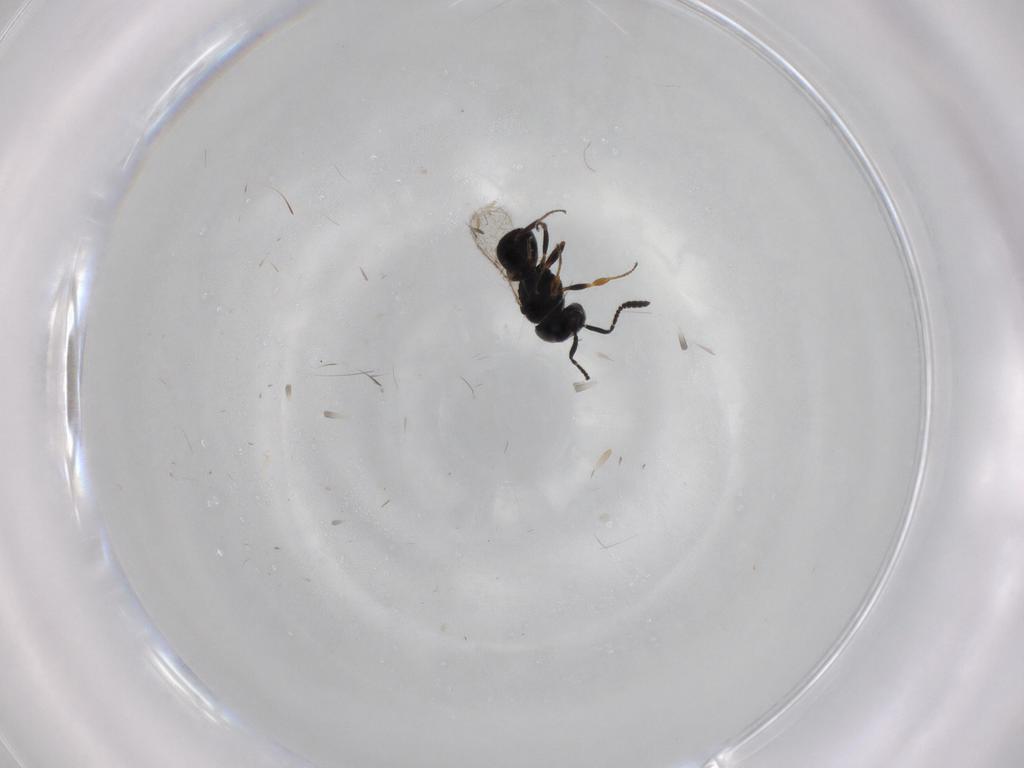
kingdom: Animalia
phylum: Arthropoda
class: Insecta
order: Hymenoptera
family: Scelionidae
